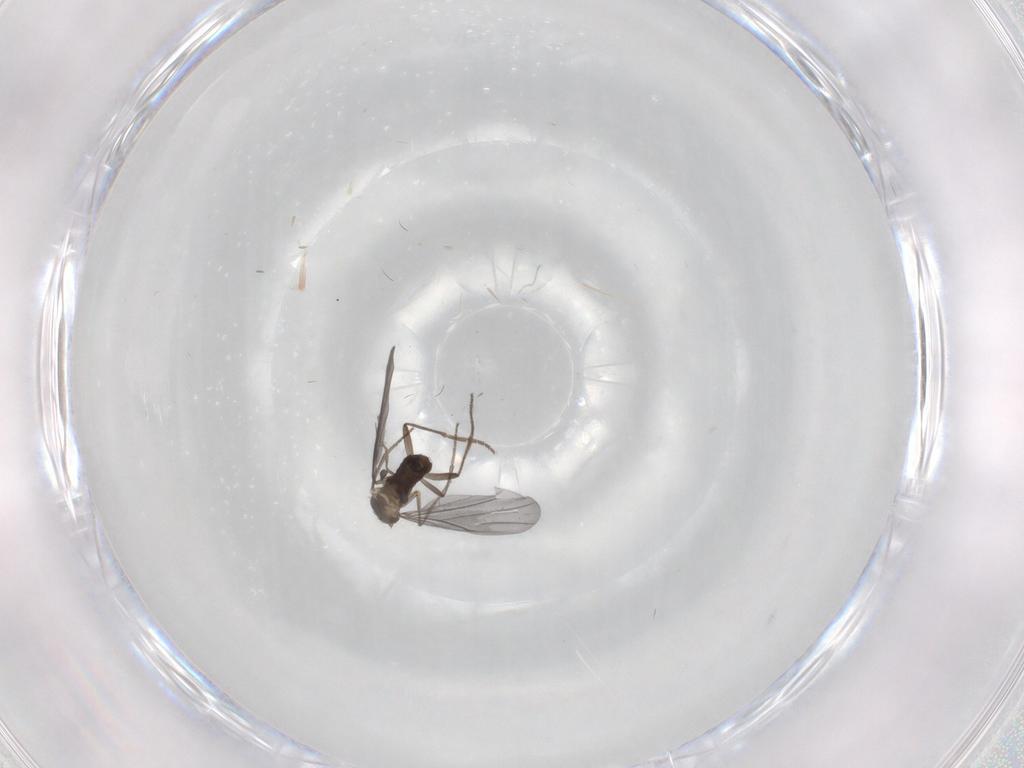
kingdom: Animalia
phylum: Arthropoda
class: Insecta
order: Diptera
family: Phoridae
